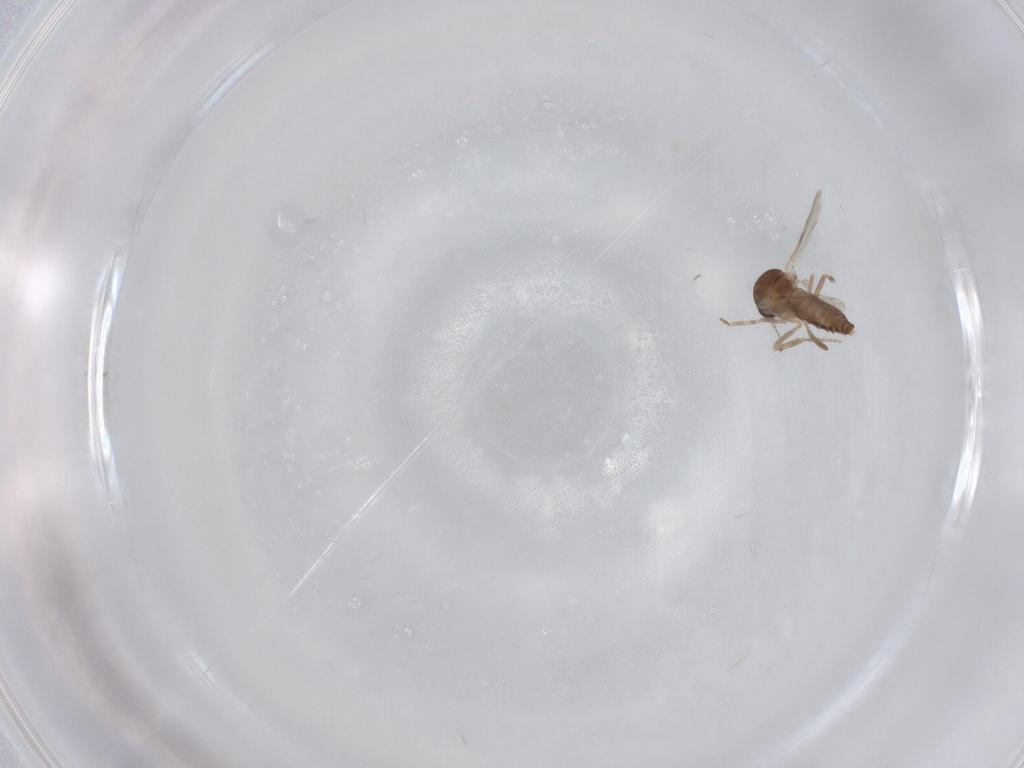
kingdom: Animalia
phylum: Arthropoda
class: Insecta
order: Diptera
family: Ceratopogonidae
